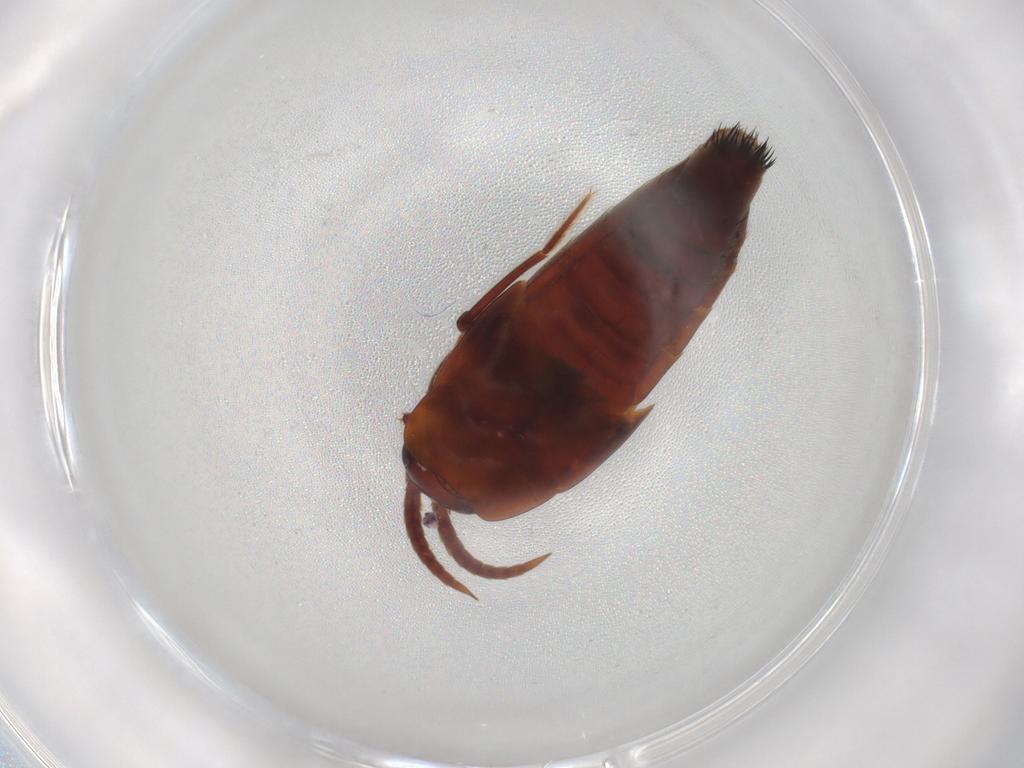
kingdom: Animalia
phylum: Arthropoda
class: Insecta
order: Coleoptera
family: Staphylinidae
